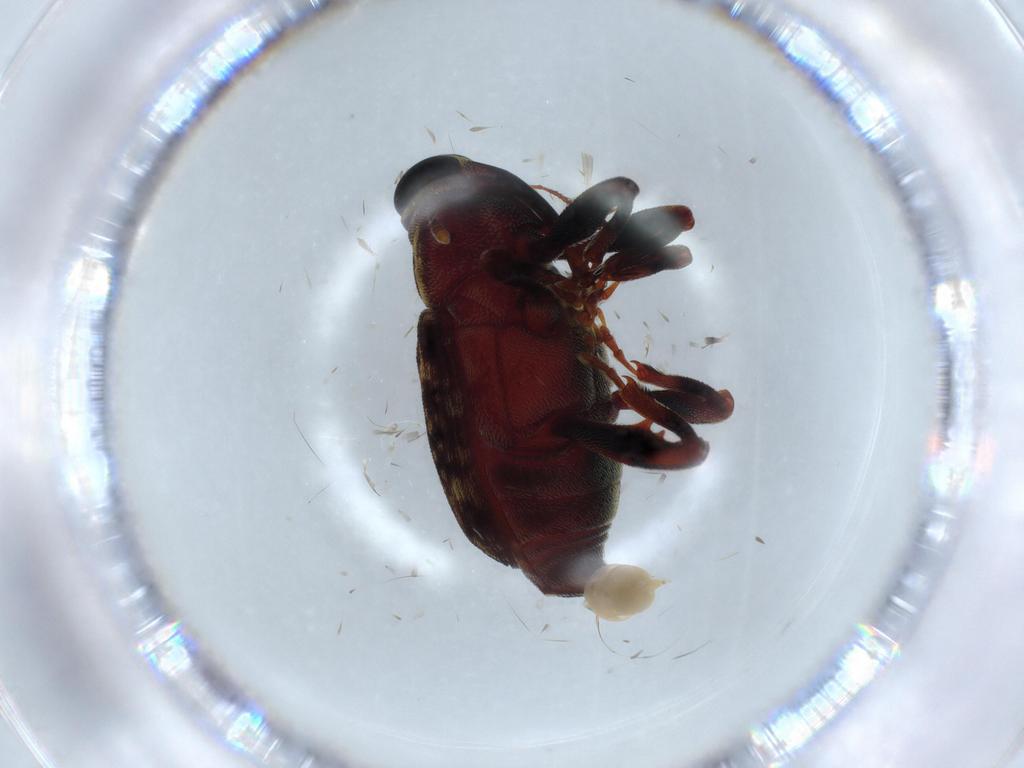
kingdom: Animalia
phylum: Arthropoda
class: Insecta
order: Coleoptera
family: Curculionidae
